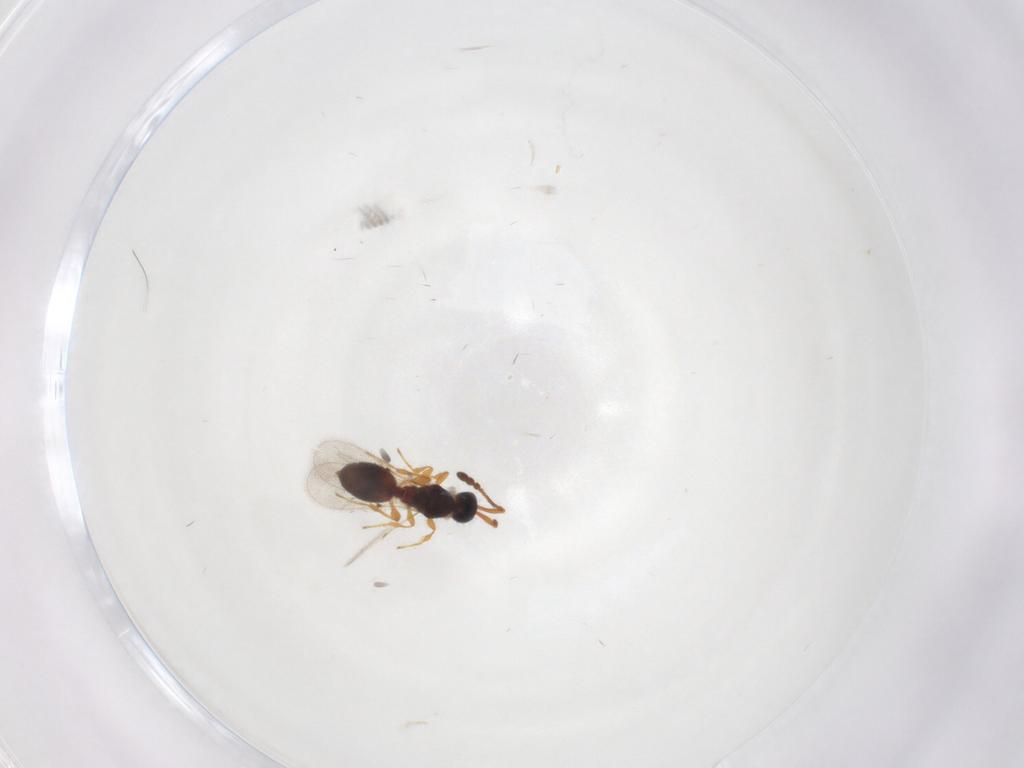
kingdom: Animalia
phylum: Arthropoda
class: Insecta
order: Hymenoptera
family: Diapriidae
